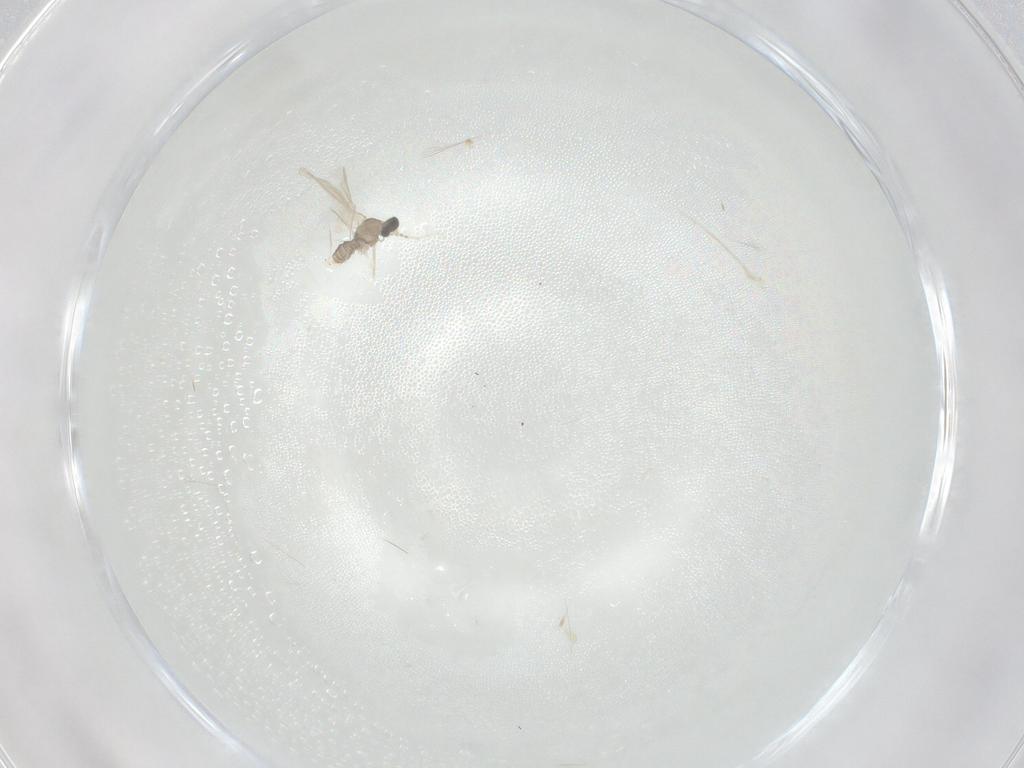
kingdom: Animalia
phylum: Arthropoda
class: Insecta
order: Diptera
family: Cecidomyiidae
